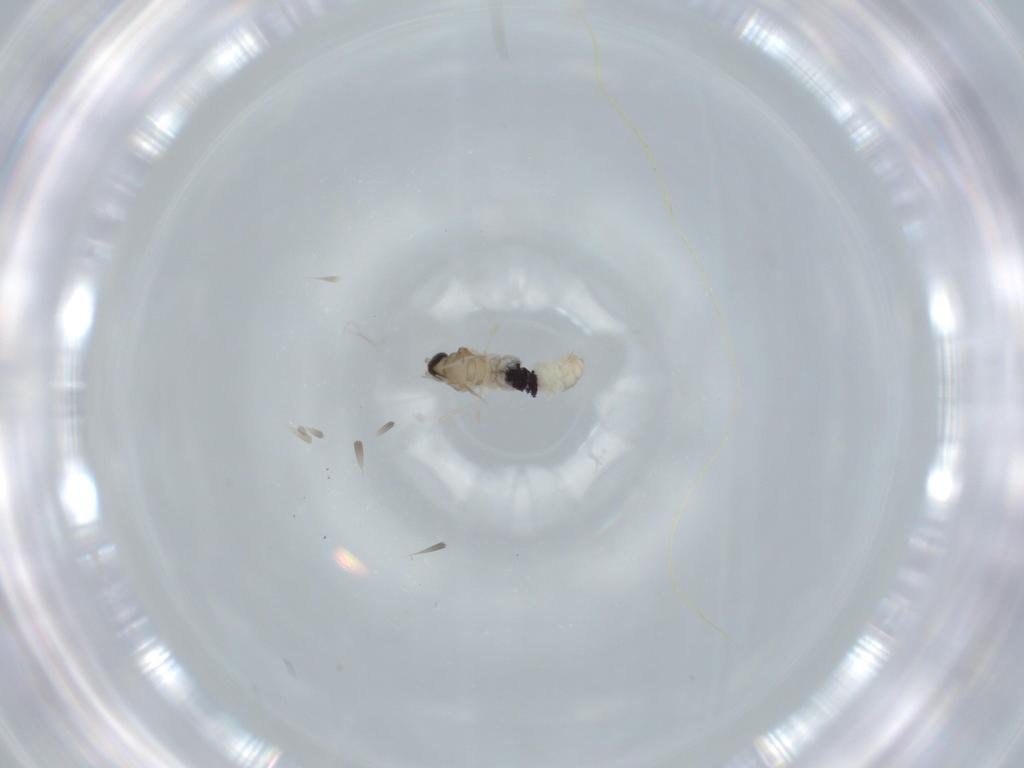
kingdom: Animalia
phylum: Arthropoda
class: Insecta
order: Diptera
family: Cecidomyiidae
